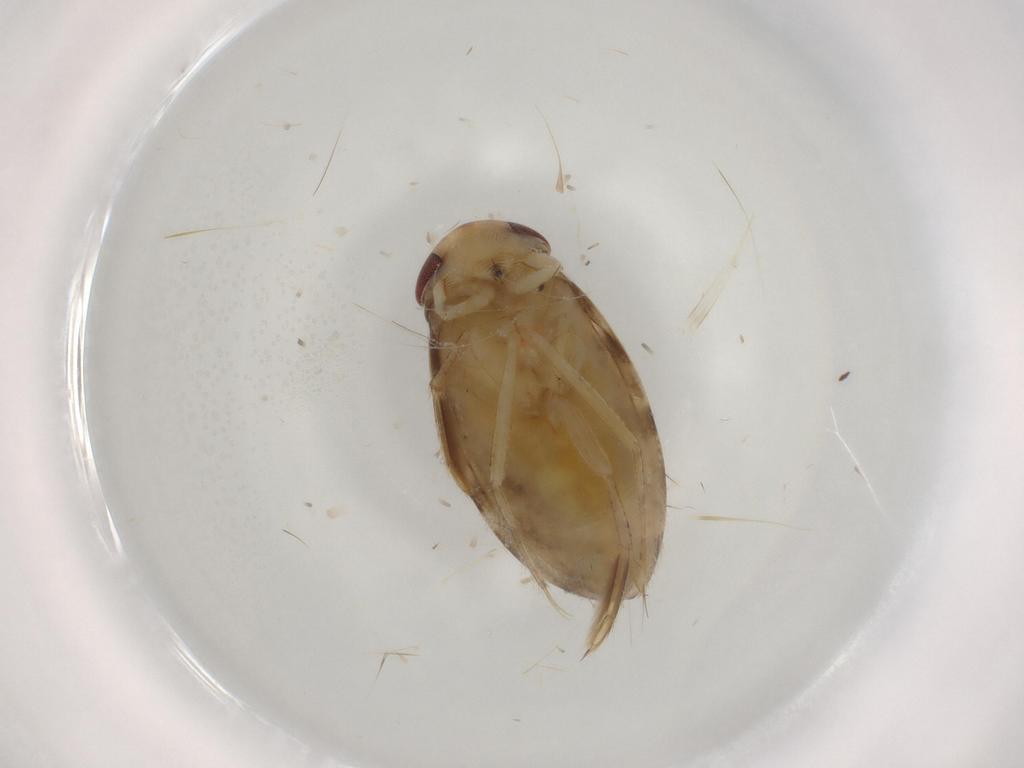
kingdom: Animalia
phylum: Arthropoda
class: Insecta
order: Hemiptera
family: Corixidae
